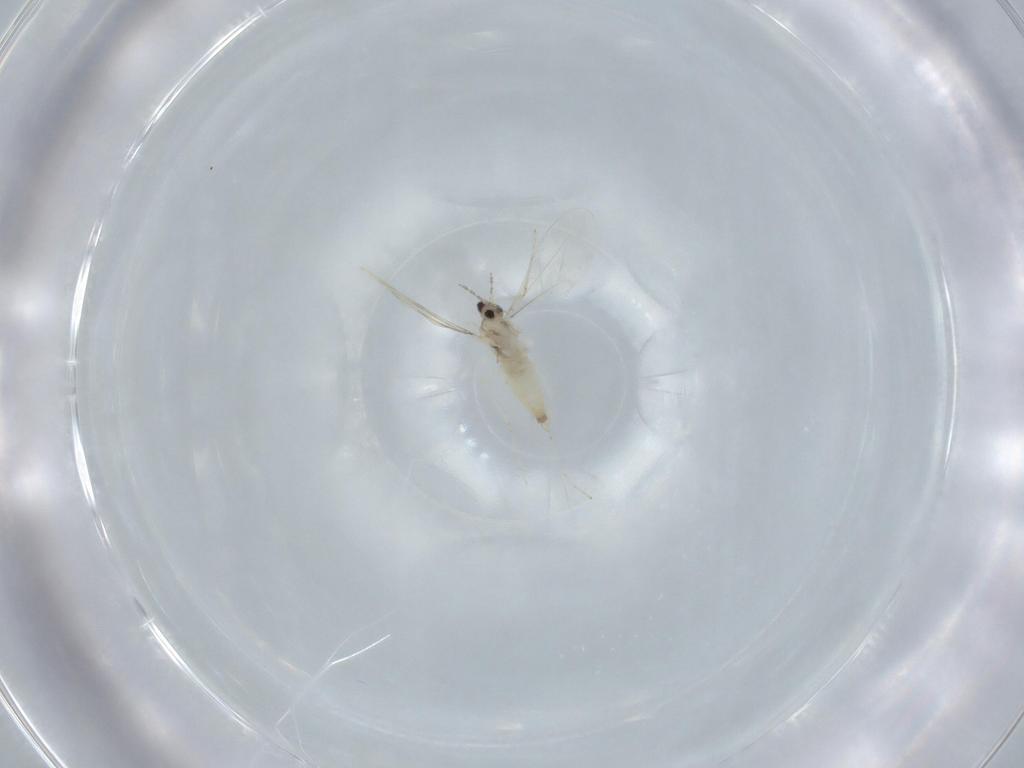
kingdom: Animalia
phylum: Arthropoda
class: Insecta
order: Diptera
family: Cecidomyiidae
